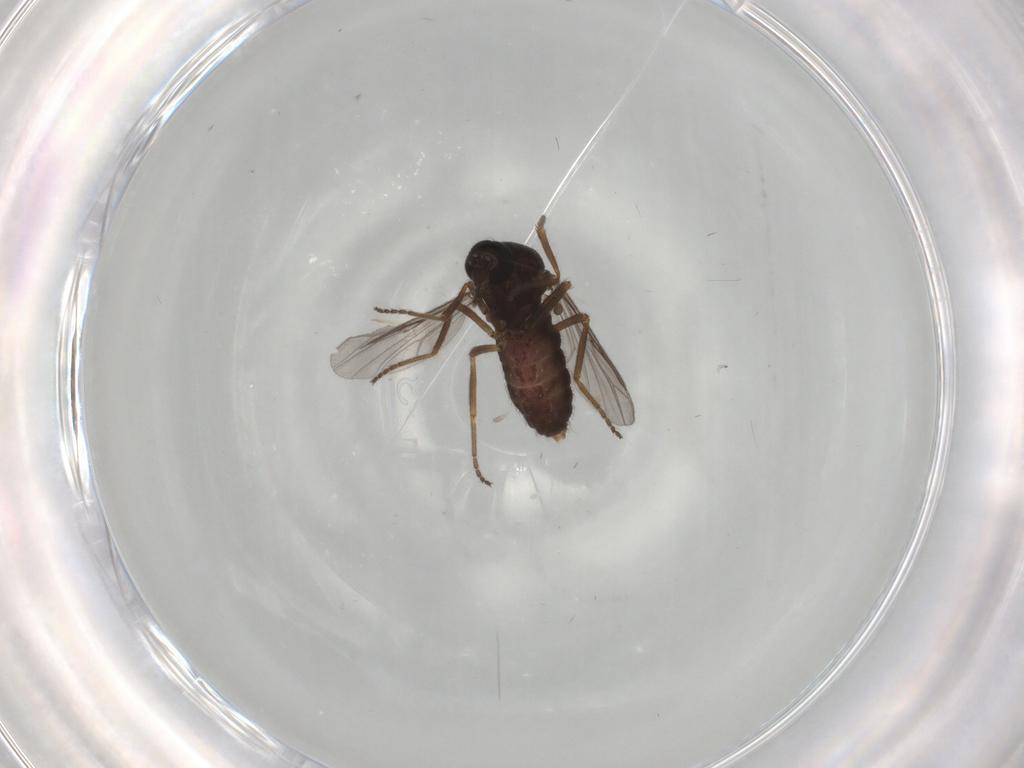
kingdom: Animalia
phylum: Arthropoda
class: Insecta
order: Diptera
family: Ceratopogonidae
